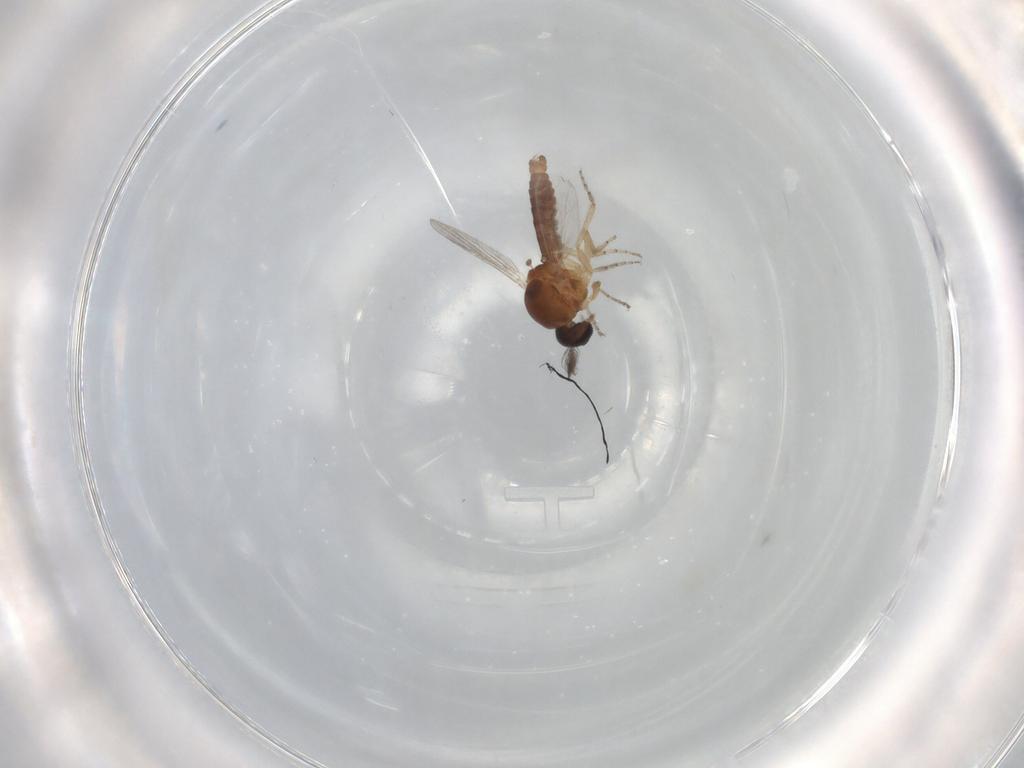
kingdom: Animalia
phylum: Arthropoda
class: Insecta
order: Diptera
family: Ceratopogonidae
